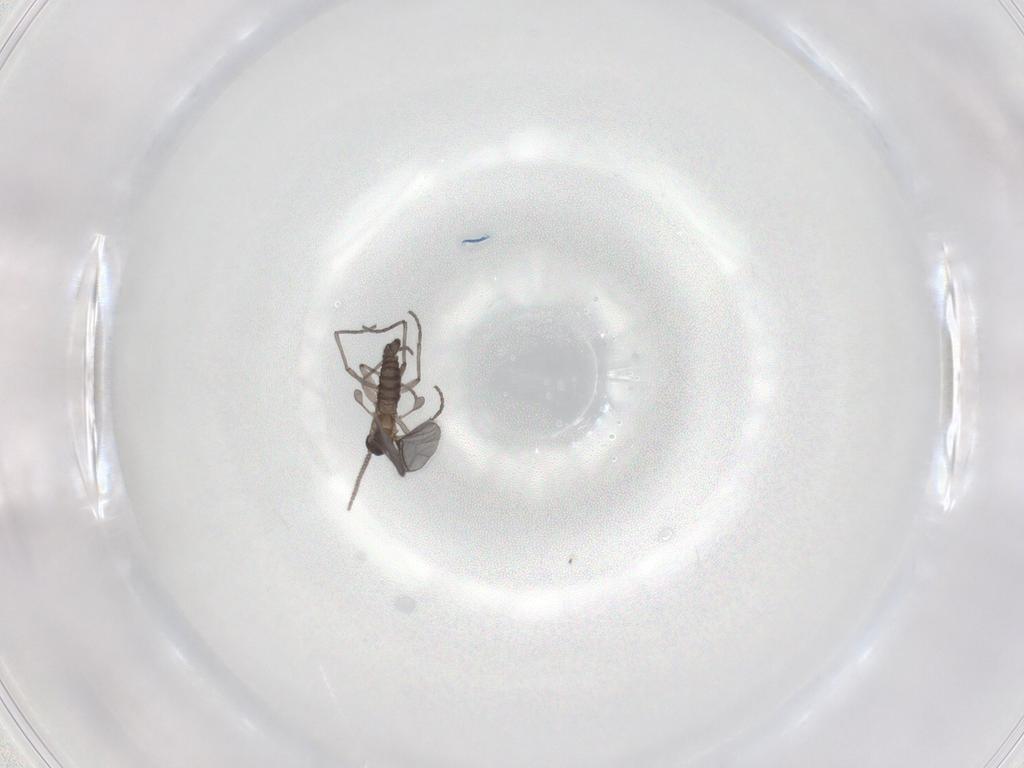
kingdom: Animalia
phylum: Arthropoda
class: Insecta
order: Diptera
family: Sciaridae
